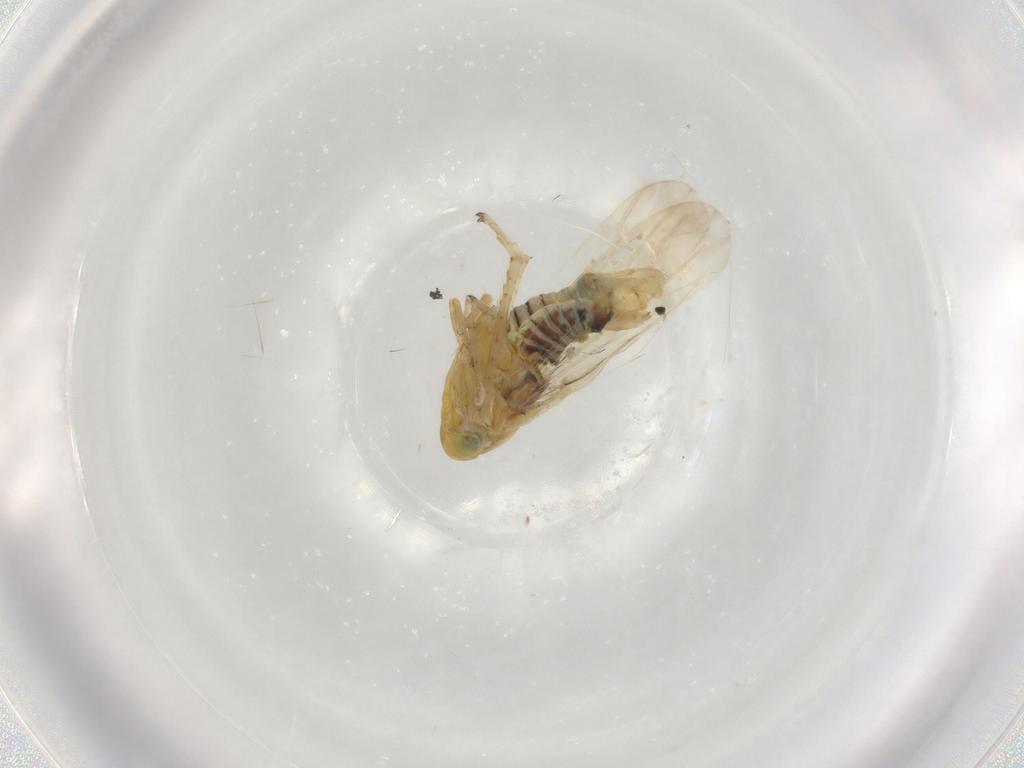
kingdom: Animalia
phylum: Arthropoda
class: Insecta
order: Hemiptera
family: Cicadellidae
